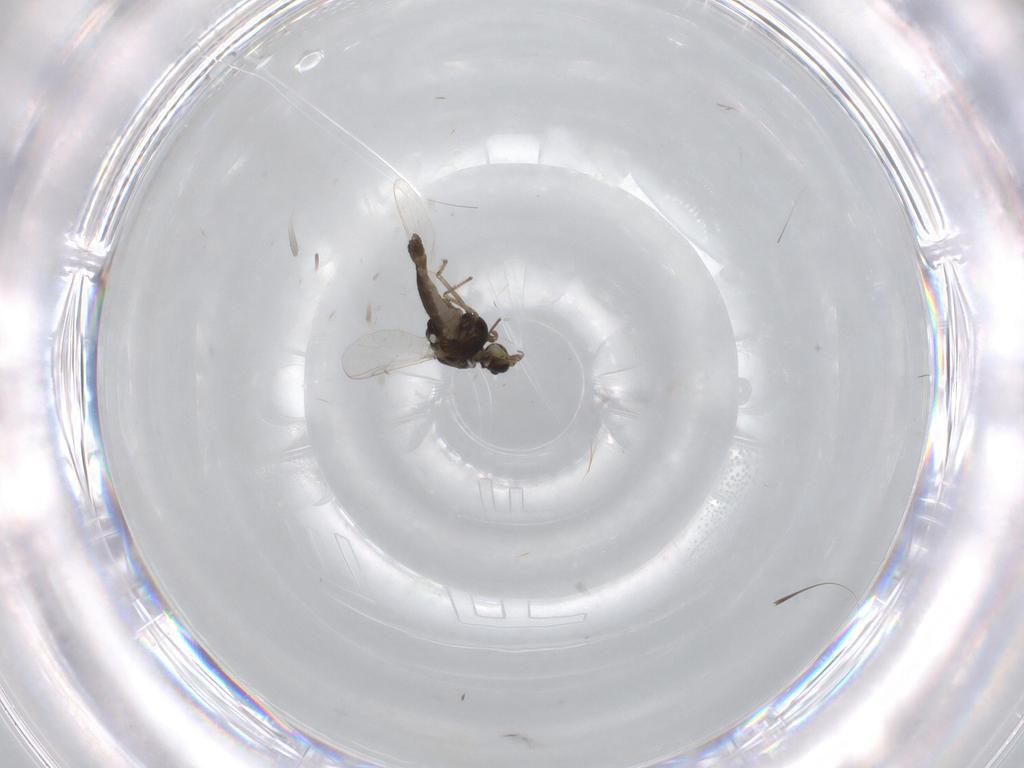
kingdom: Animalia
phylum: Arthropoda
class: Insecta
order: Diptera
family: Chironomidae
